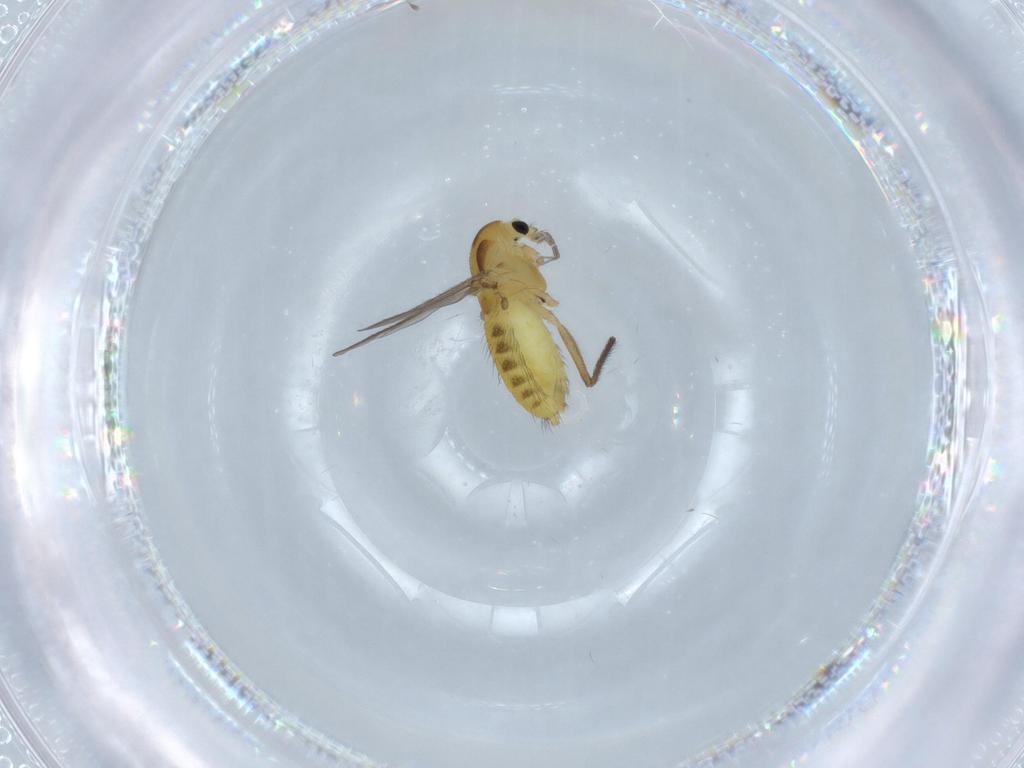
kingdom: Animalia
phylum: Arthropoda
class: Insecta
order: Diptera
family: Chironomidae
